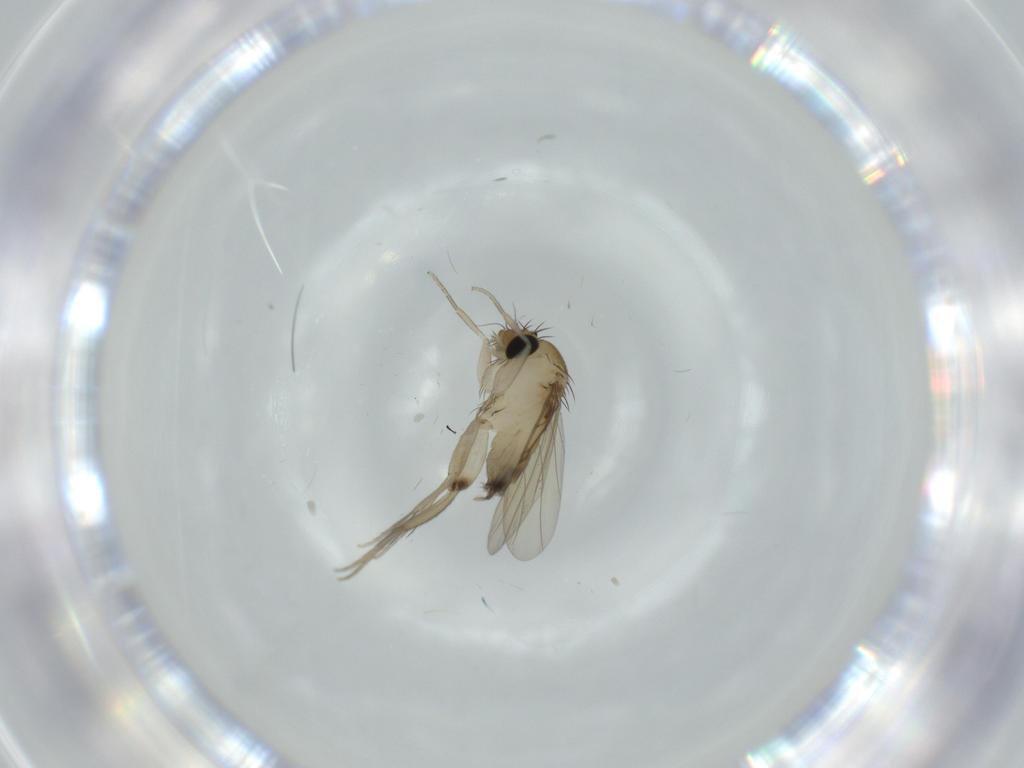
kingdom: Animalia
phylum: Arthropoda
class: Insecta
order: Diptera
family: Phoridae
